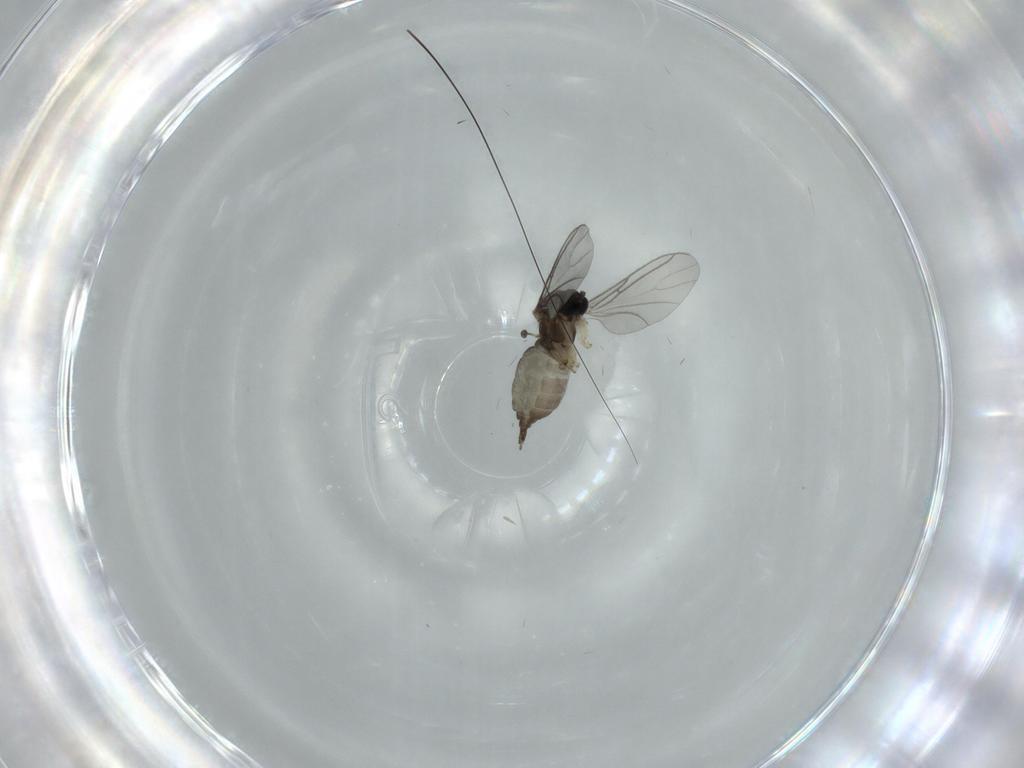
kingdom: Animalia
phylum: Arthropoda
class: Insecta
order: Diptera
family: Sciaridae
